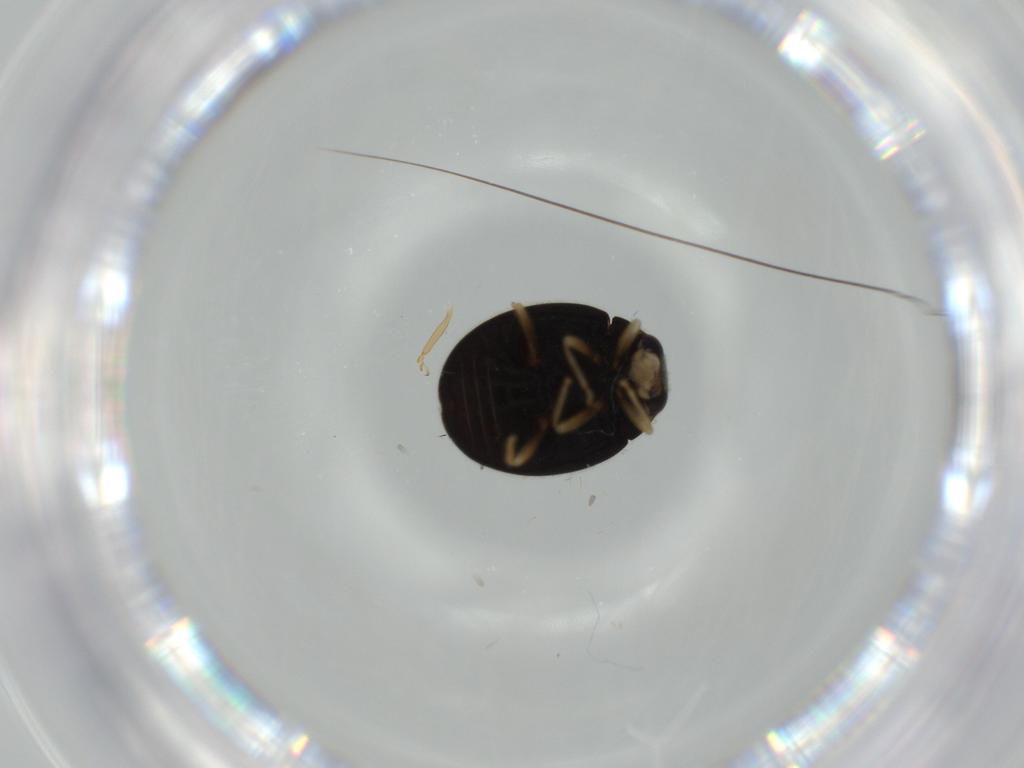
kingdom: Animalia
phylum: Arthropoda
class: Insecta
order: Coleoptera
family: Coccinellidae
